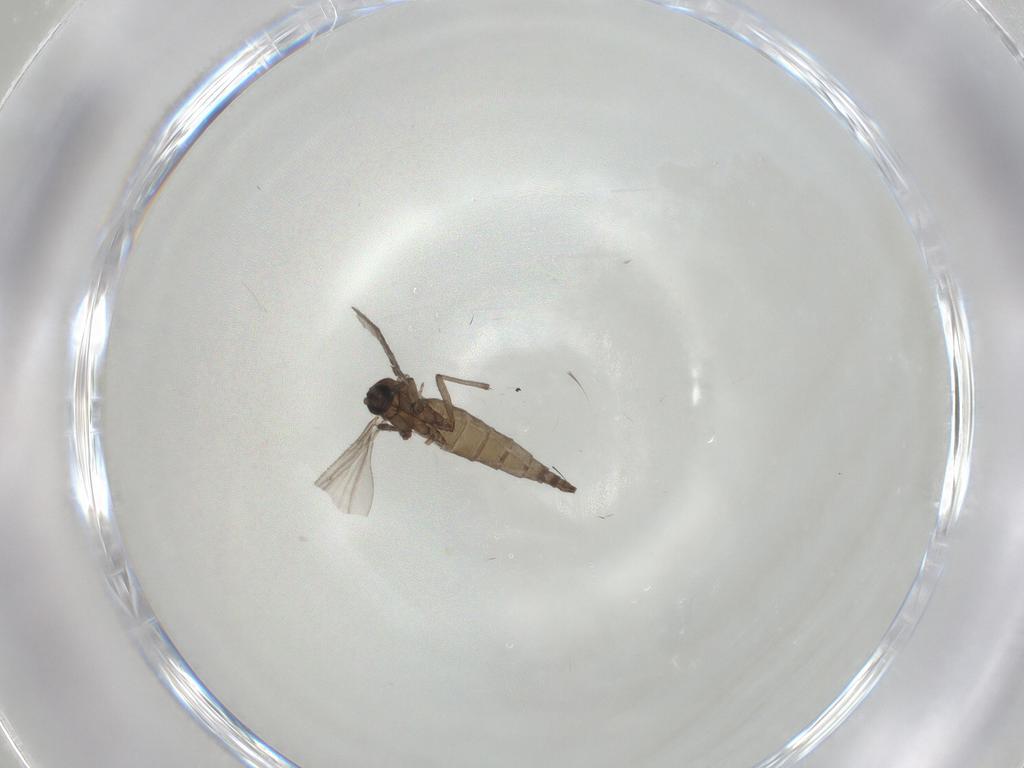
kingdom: Animalia
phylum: Arthropoda
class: Insecta
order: Diptera
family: Sciaridae
